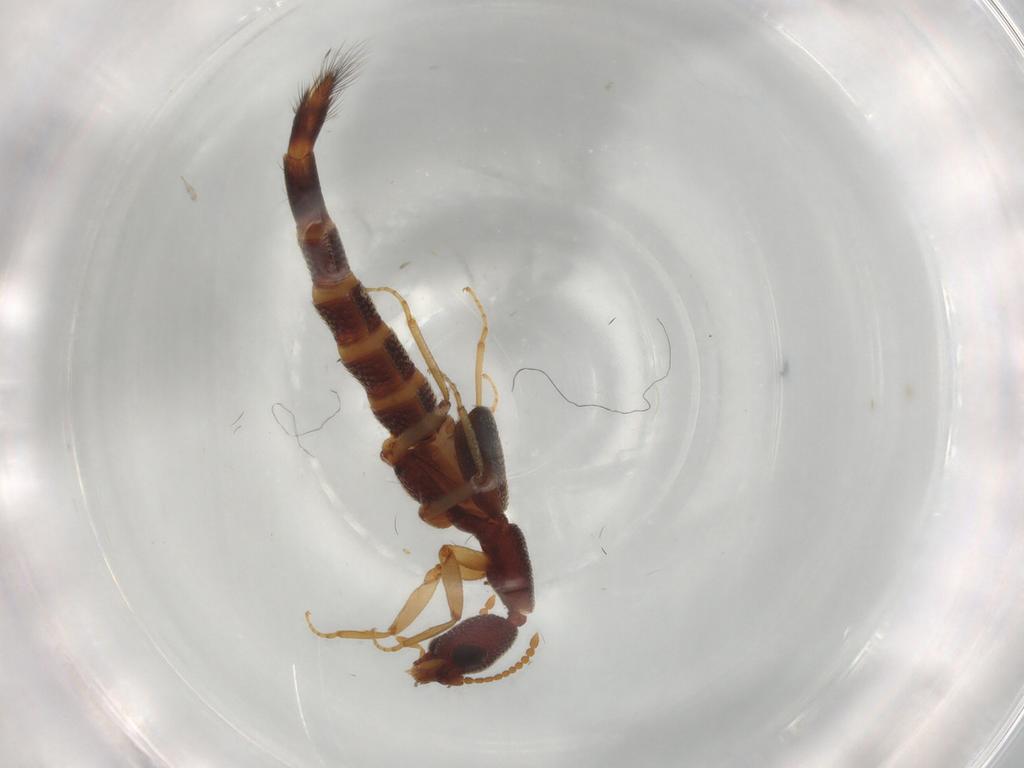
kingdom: Animalia
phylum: Arthropoda
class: Insecta
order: Coleoptera
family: Staphylinidae
